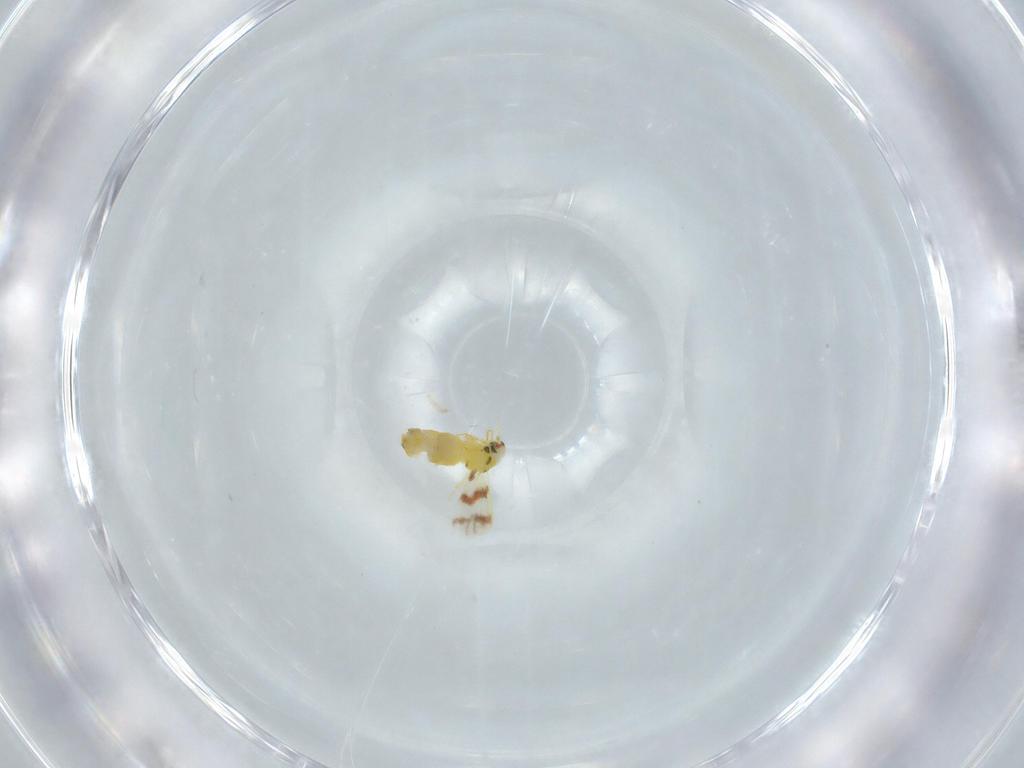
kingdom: Animalia
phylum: Arthropoda
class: Insecta
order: Hemiptera
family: Aleyrodidae
